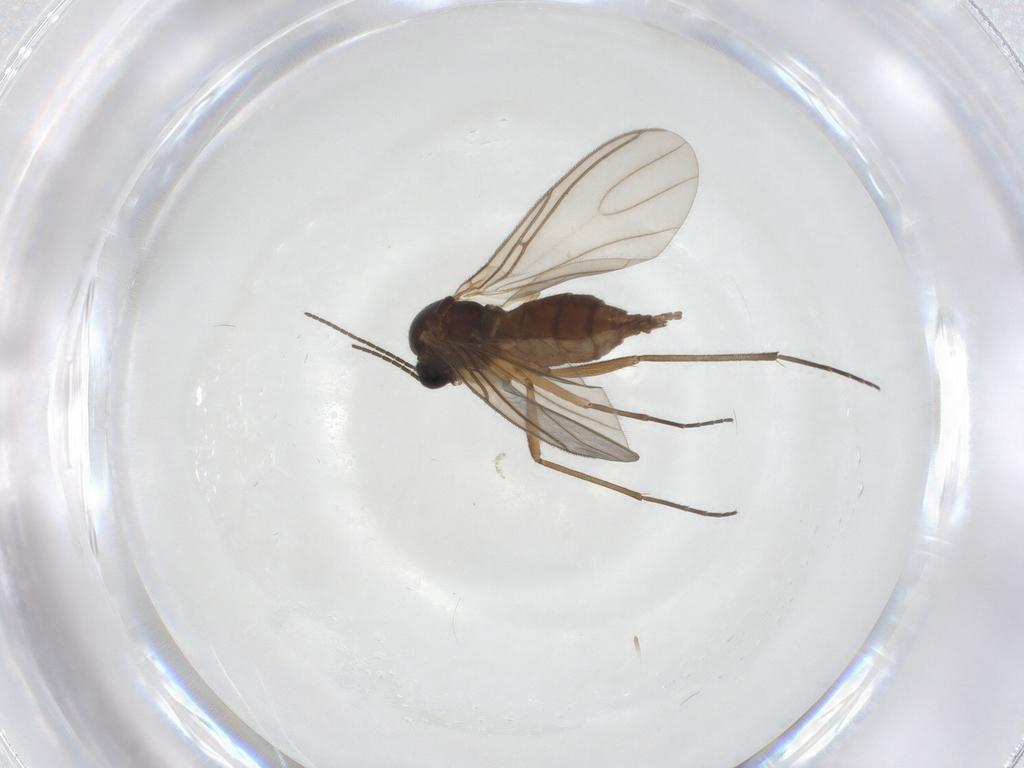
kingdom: Animalia
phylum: Arthropoda
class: Insecta
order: Diptera
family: Sciaridae
